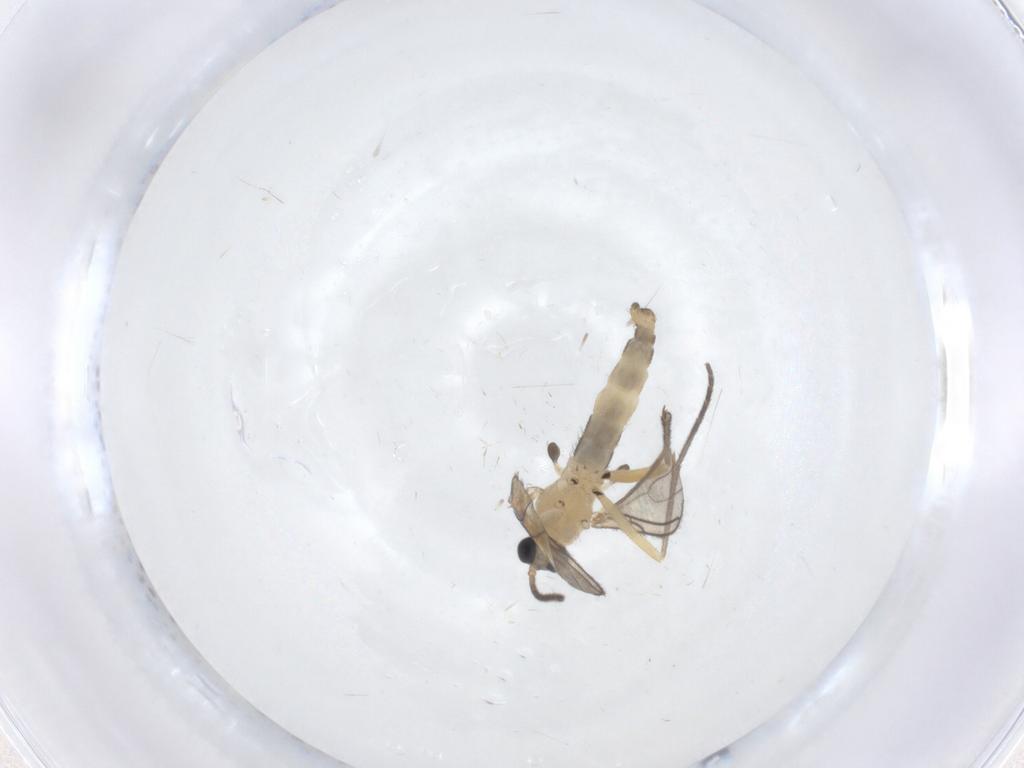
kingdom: Animalia
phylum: Arthropoda
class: Insecta
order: Diptera
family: Sciaridae
